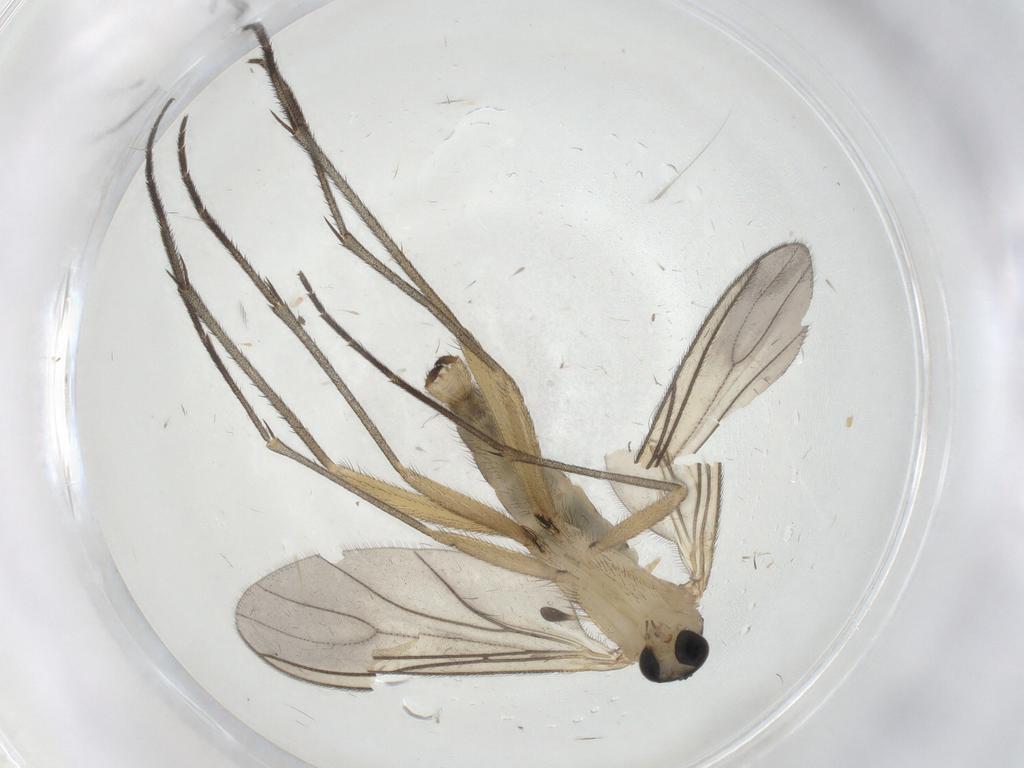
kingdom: Animalia
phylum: Arthropoda
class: Insecta
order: Diptera
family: Sciaridae
